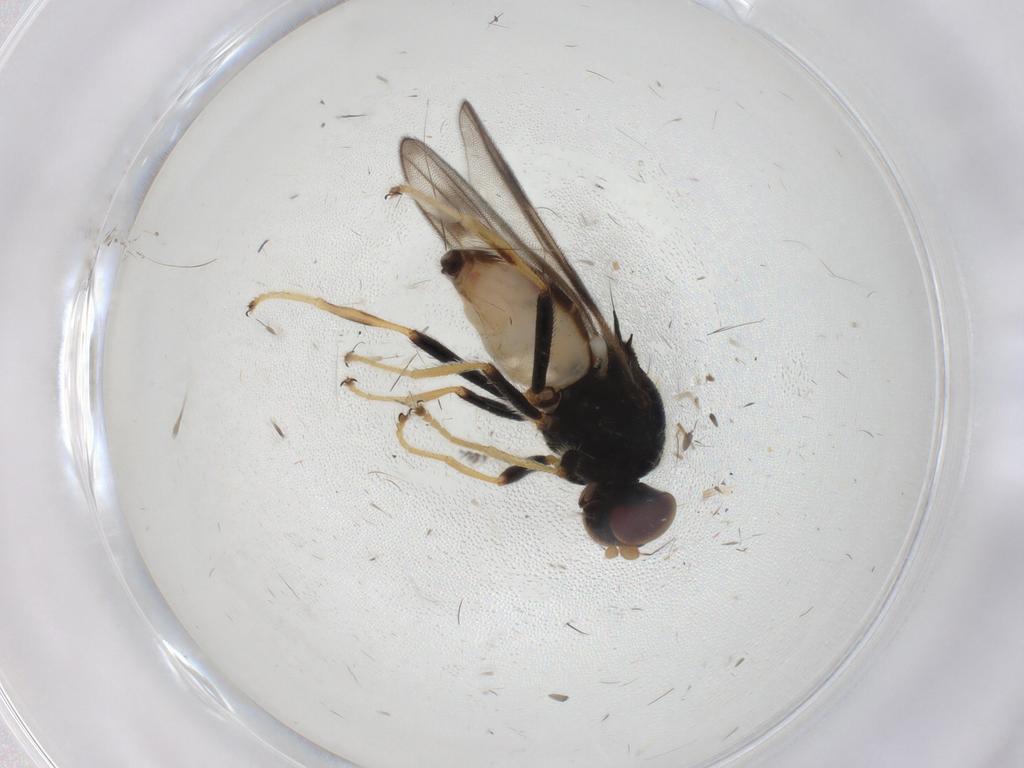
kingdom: Animalia
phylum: Arthropoda
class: Insecta
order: Diptera
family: Chloropidae
